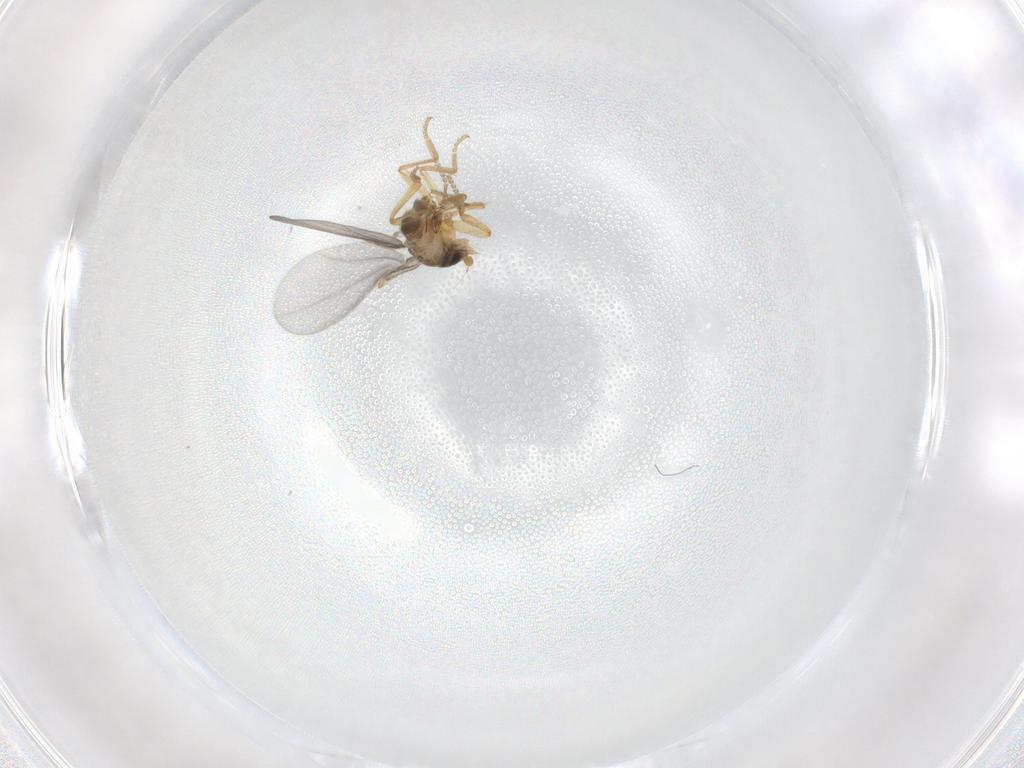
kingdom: Animalia
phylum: Arthropoda
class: Insecta
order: Diptera
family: Phoridae
